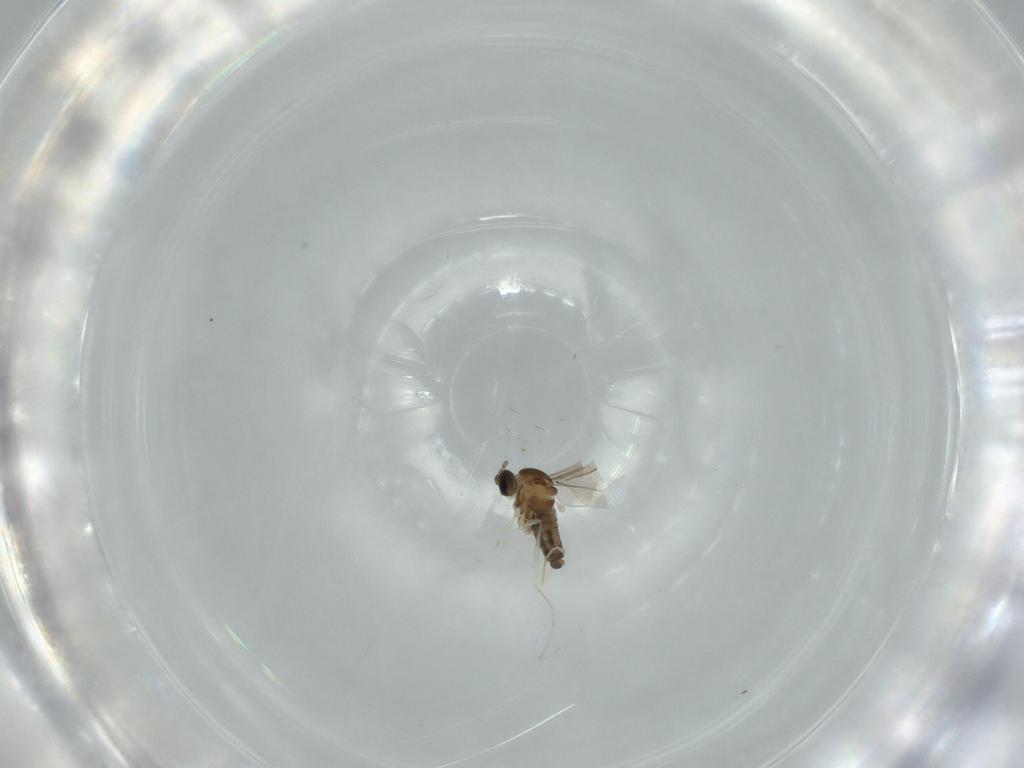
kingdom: Animalia
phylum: Arthropoda
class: Insecta
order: Diptera
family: Cecidomyiidae
